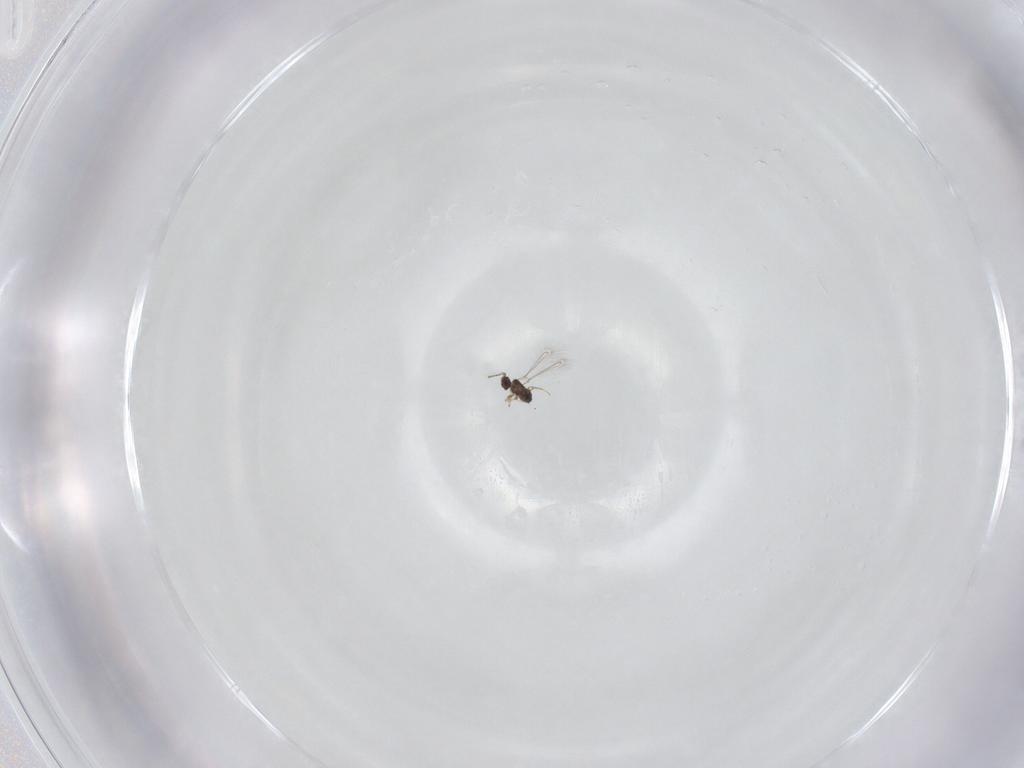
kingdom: Animalia
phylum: Arthropoda
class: Insecta
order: Hymenoptera
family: Mymaridae
